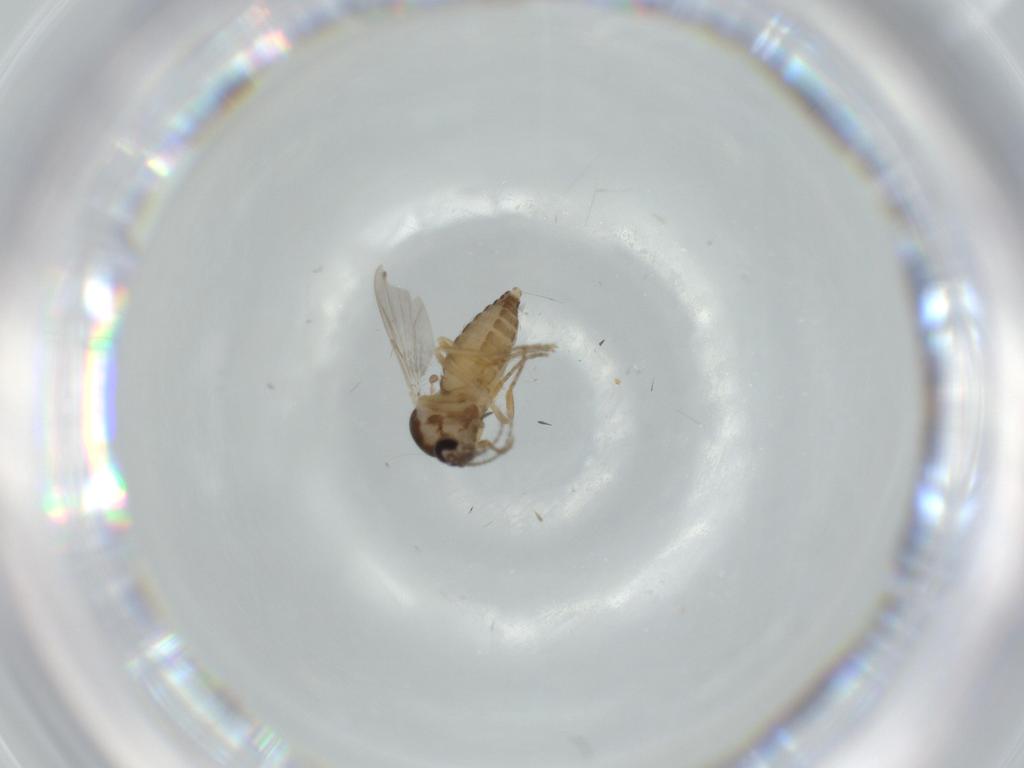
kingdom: Animalia
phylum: Arthropoda
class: Insecta
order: Diptera
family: Ceratopogonidae
